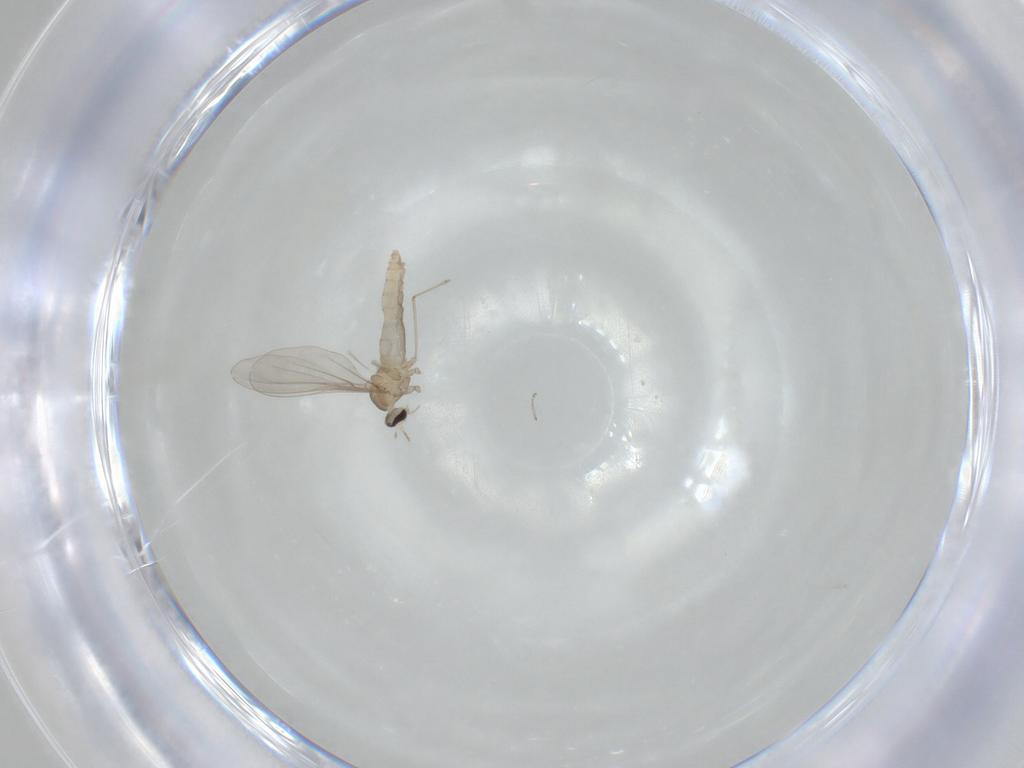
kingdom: Animalia
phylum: Arthropoda
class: Insecta
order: Diptera
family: Cecidomyiidae
